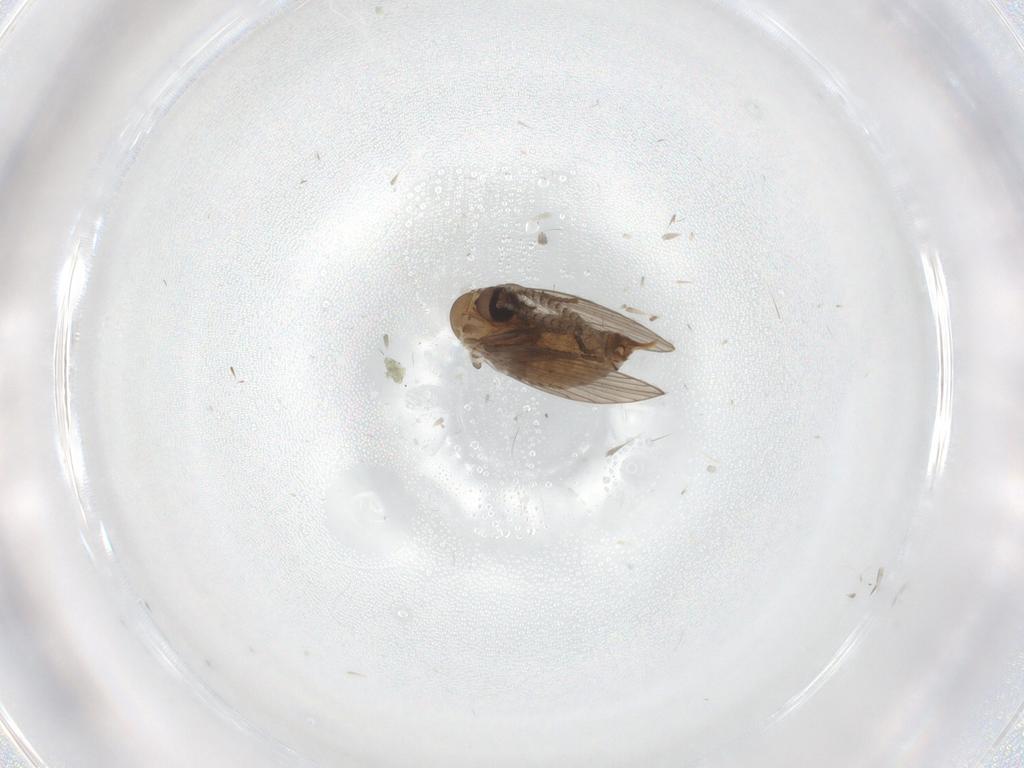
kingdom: Animalia
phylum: Arthropoda
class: Insecta
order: Diptera
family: Psychodidae
